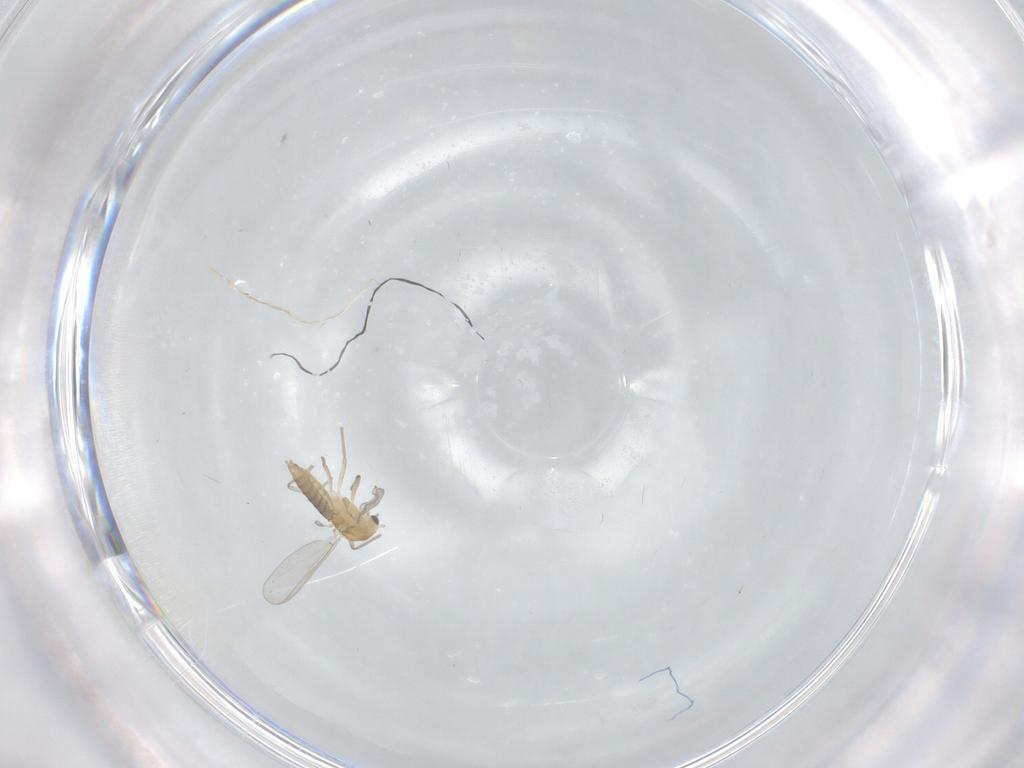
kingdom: Animalia
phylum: Arthropoda
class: Insecta
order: Diptera
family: Chironomidae
